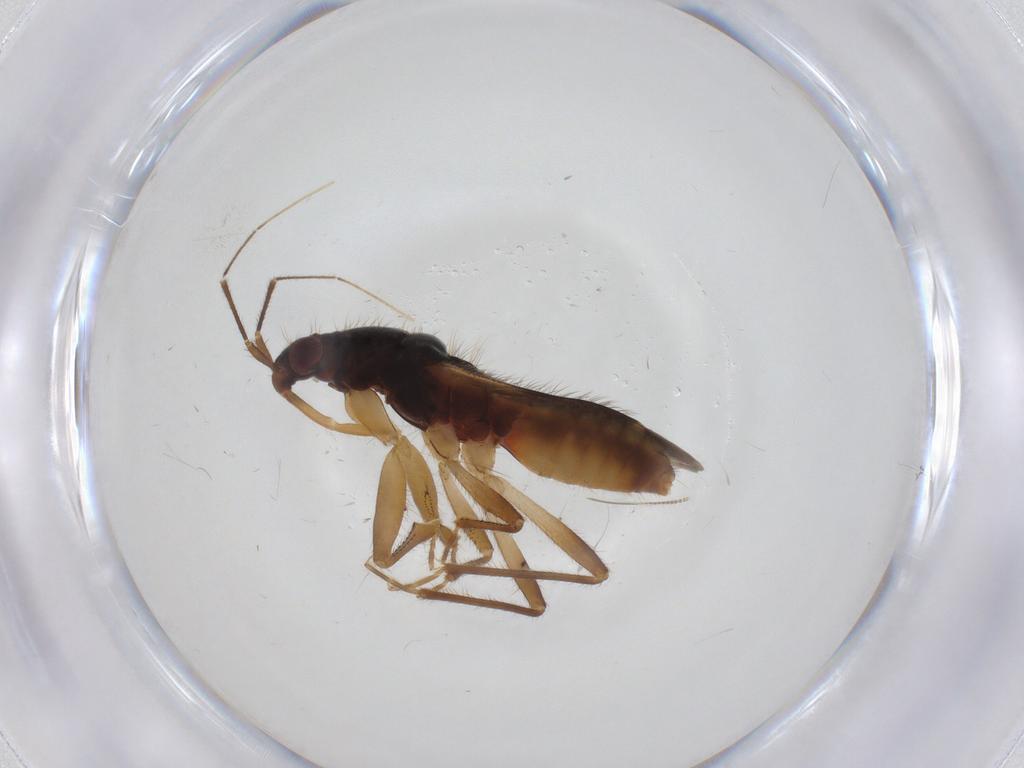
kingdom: Animalia
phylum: Arthropoda
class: Insecta
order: Hemiptera
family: Nabidae
